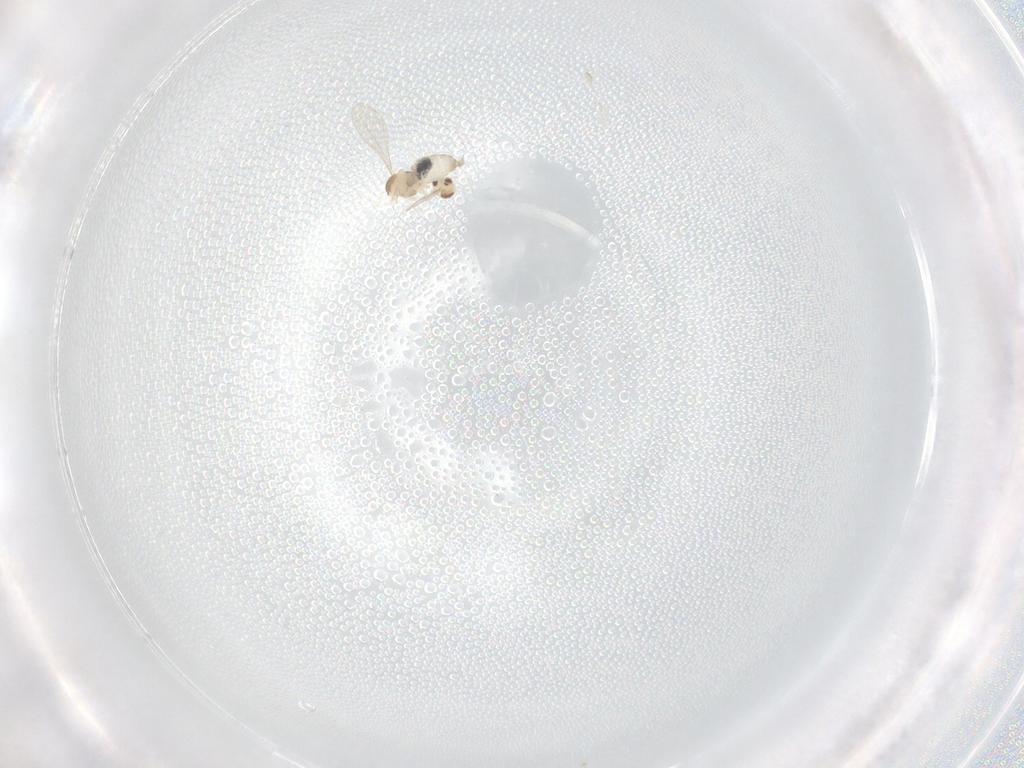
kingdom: Animalia
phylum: Arthropoda
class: Insecta
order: Diptera
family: Cecidomyiidae
